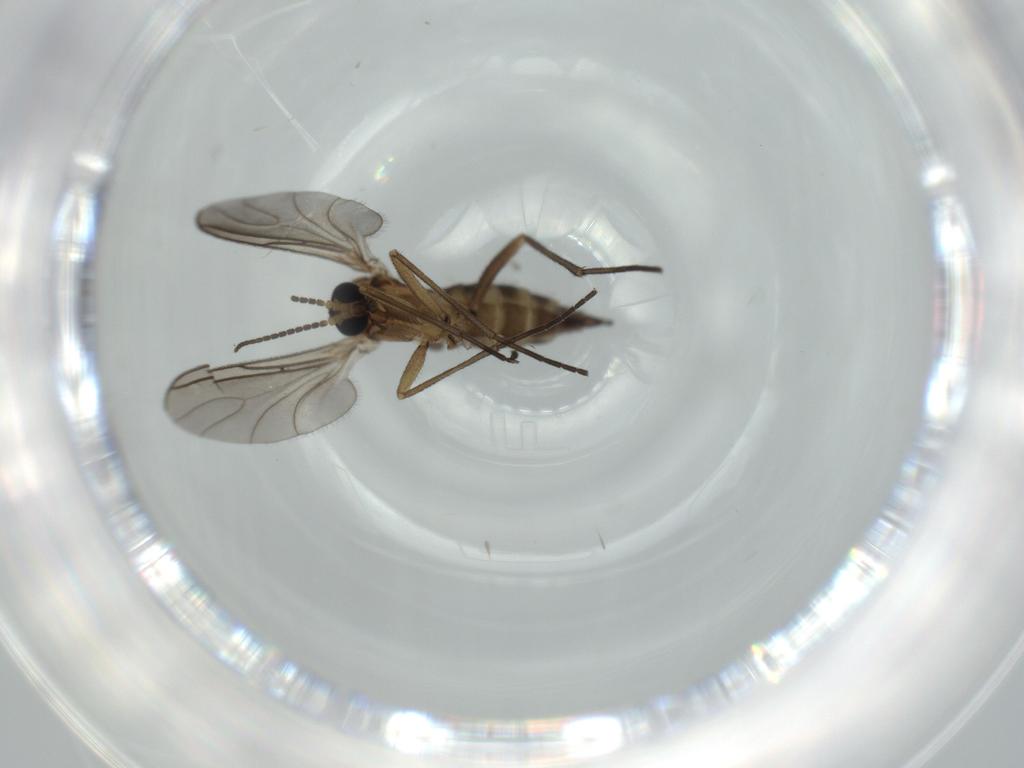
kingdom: Animalia
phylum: Arthropoda
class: Insecta
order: Diptera
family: Sciaridae
